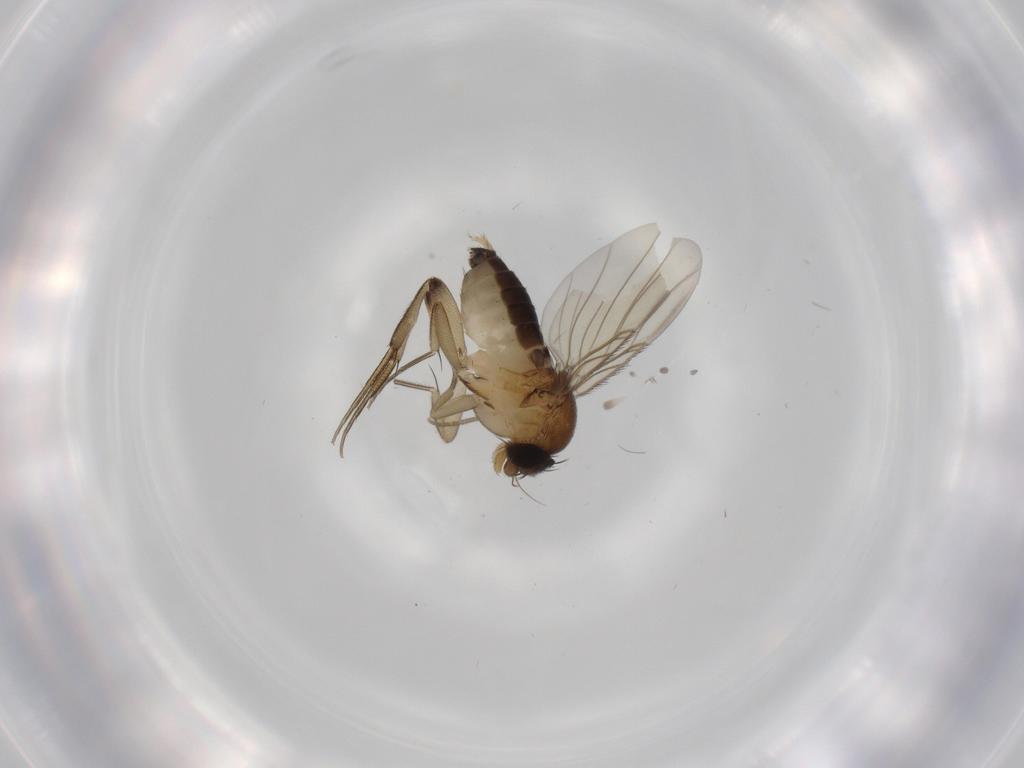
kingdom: Animalia
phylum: Arthropoda
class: Insecta
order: Diptera
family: Phoridae
